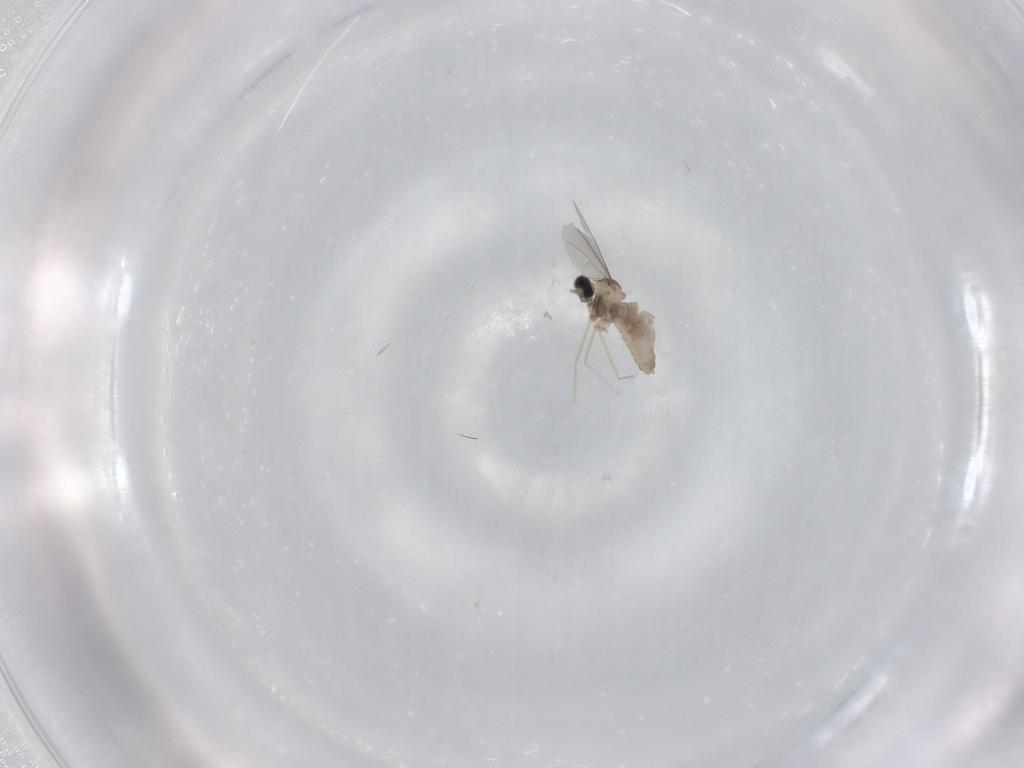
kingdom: Animalia
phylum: Arthropoda
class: Insecta
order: Diptera
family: Cecidomyiidae
